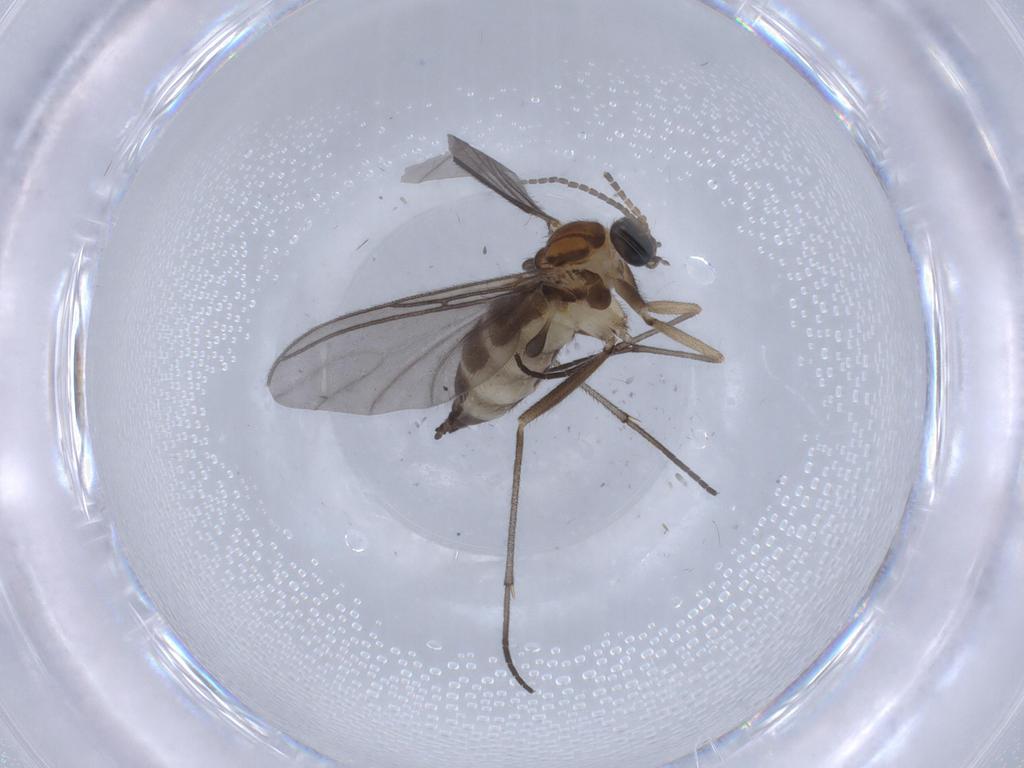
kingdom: Animalia
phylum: Arthropoda
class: Insecta
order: Diptera
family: Sciaridae
